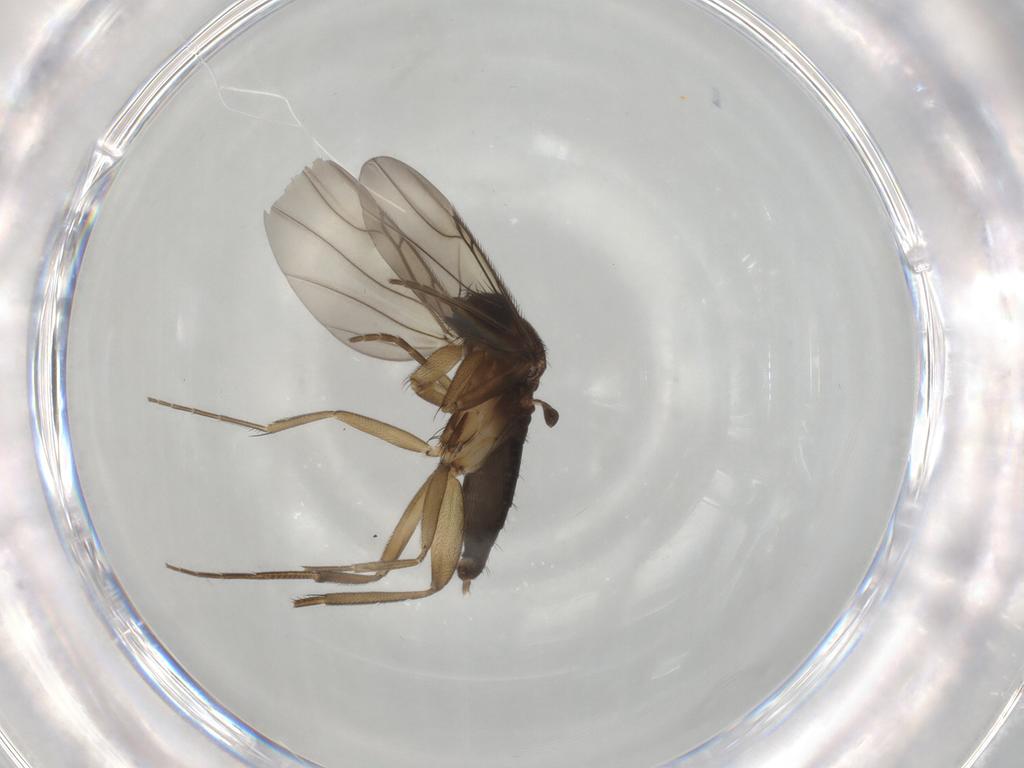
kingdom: Animalia
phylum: Arthropoda
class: Insecta
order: Diptera
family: Phoridae
